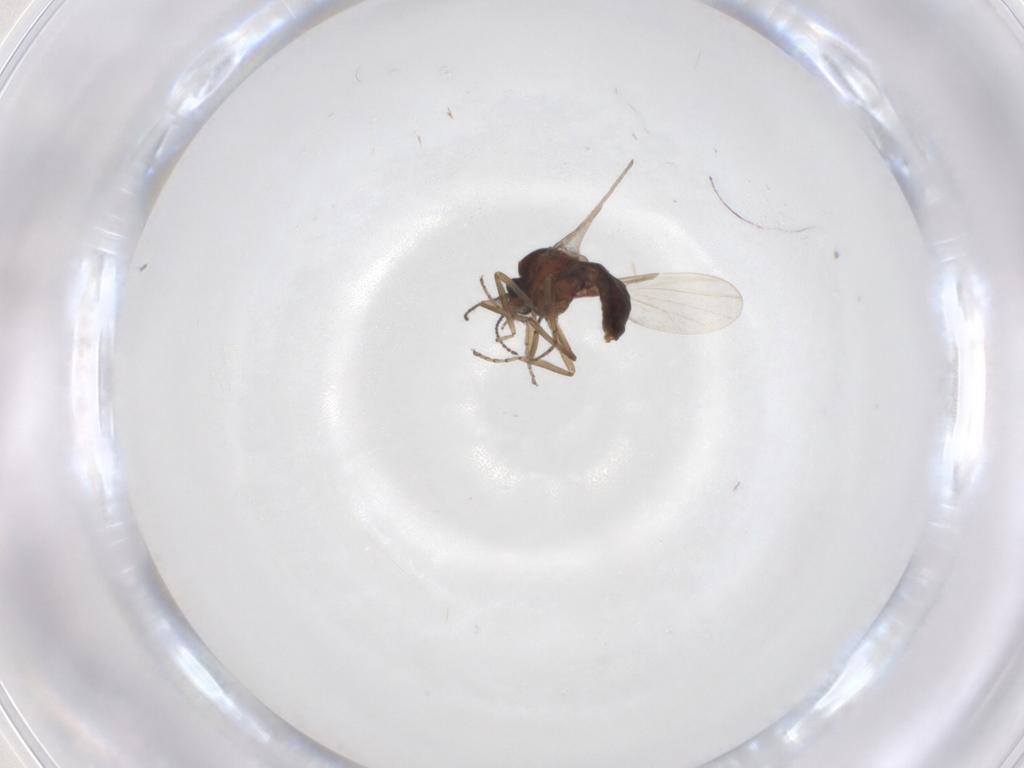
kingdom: Animalia
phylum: Arthropoda
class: Insecta
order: Diptera
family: Ceratopogonidae
